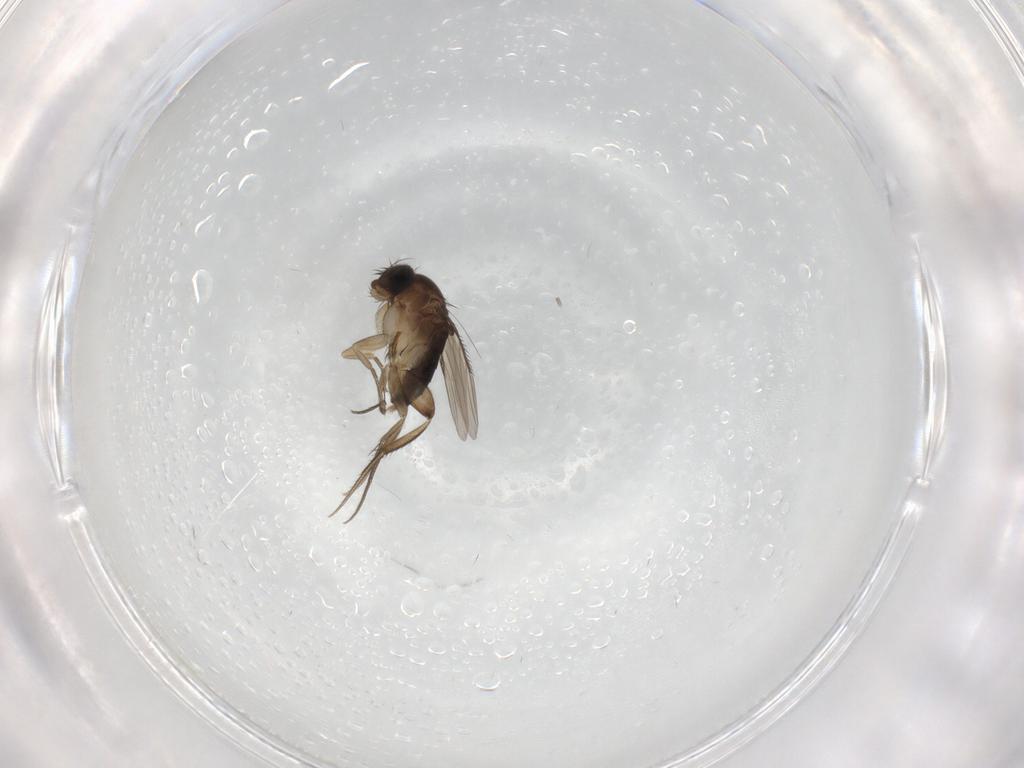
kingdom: Animalia
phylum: Arthropoda
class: Insecta
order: Diptera
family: Phoridae
